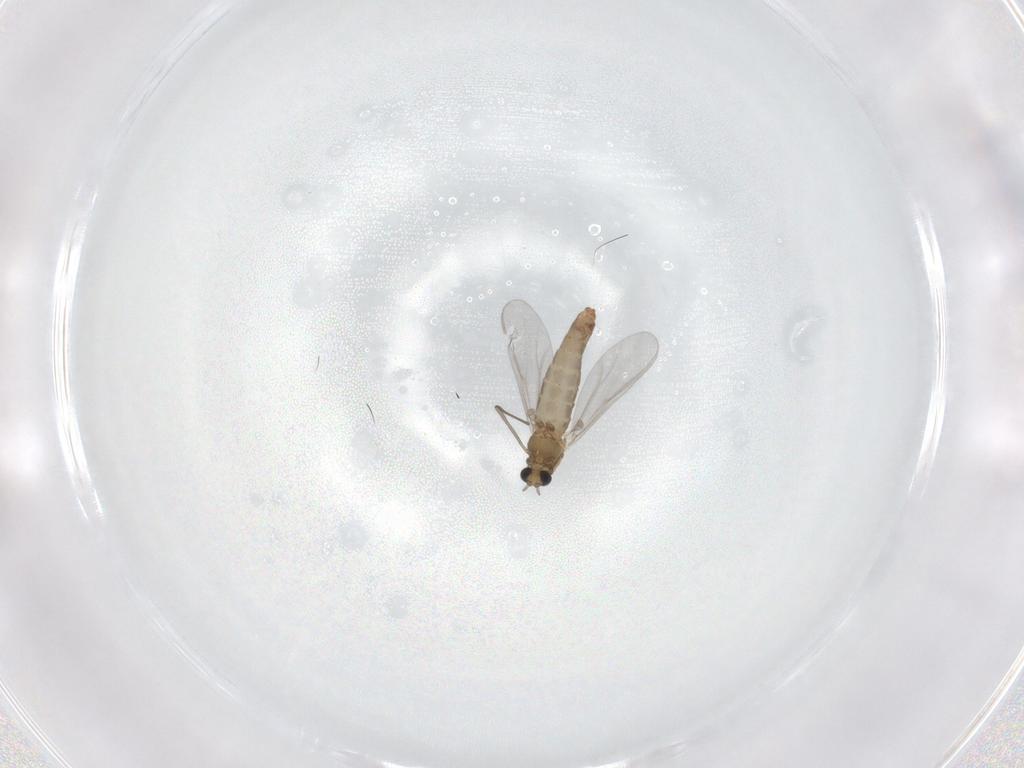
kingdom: Animalia
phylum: Arthropoda
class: Insecta
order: Diptera
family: Chironomidae
